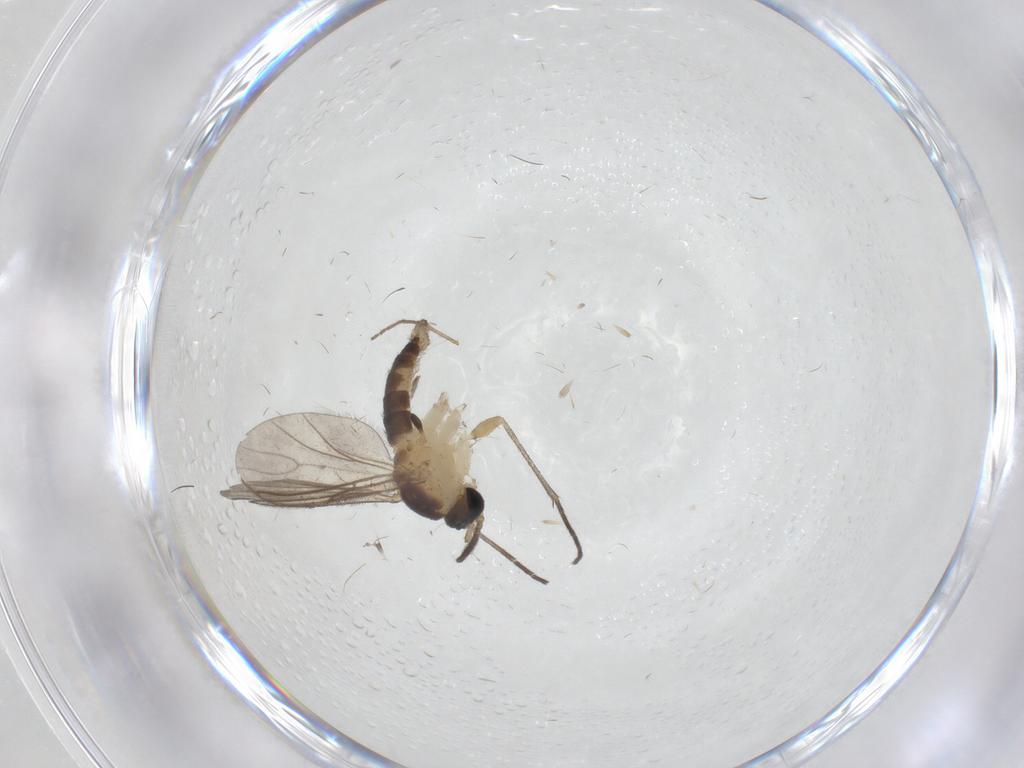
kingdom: Animalia
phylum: Arthropoda
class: Insecta
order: Diptera
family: Sciaridae
